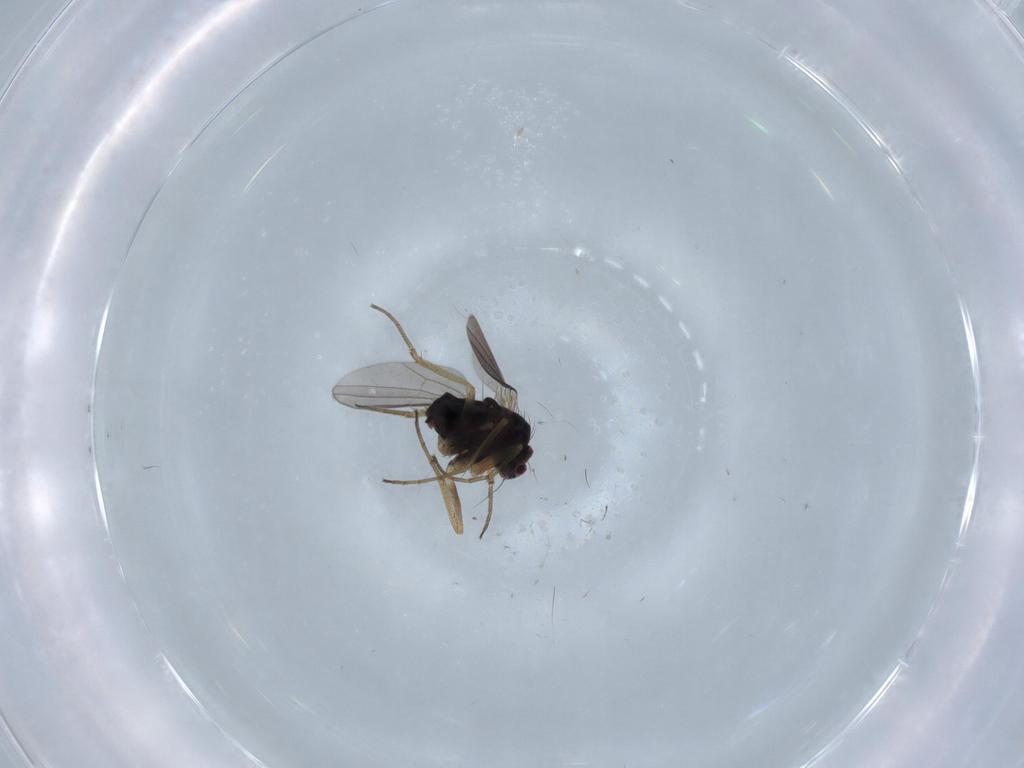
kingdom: Animalia
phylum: Arthropoda
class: Insecta
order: Diptera
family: Dolichopodidae
